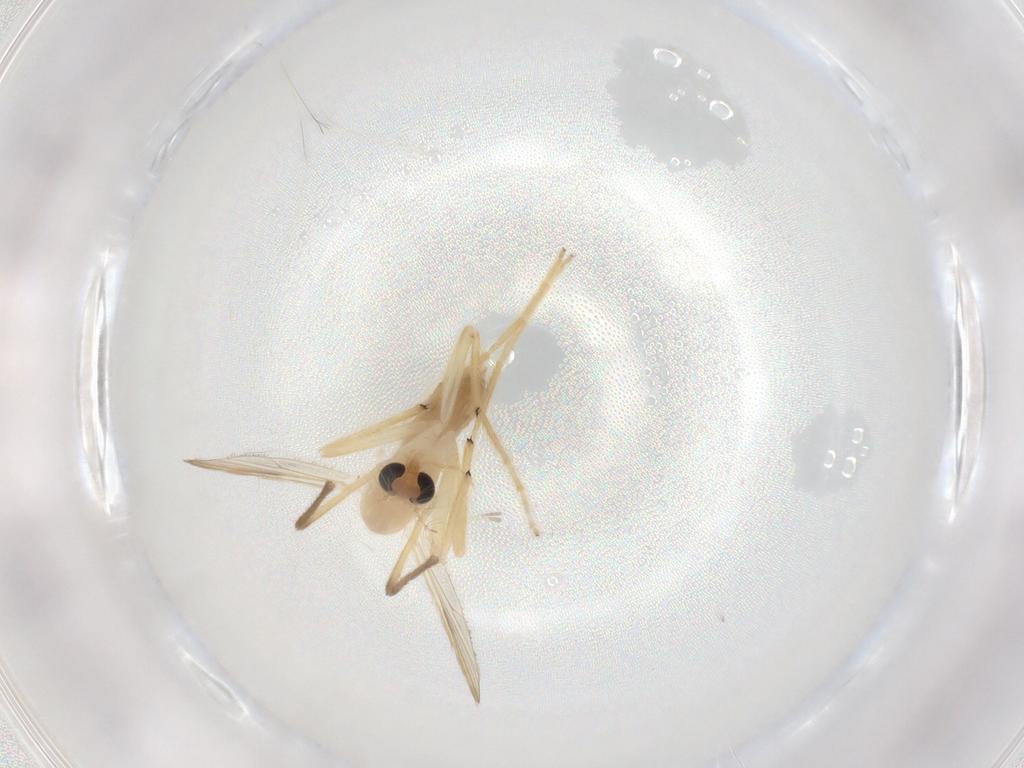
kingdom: Animalia
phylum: Arthropoda
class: Insecta
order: Diptera
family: Chironomidae
